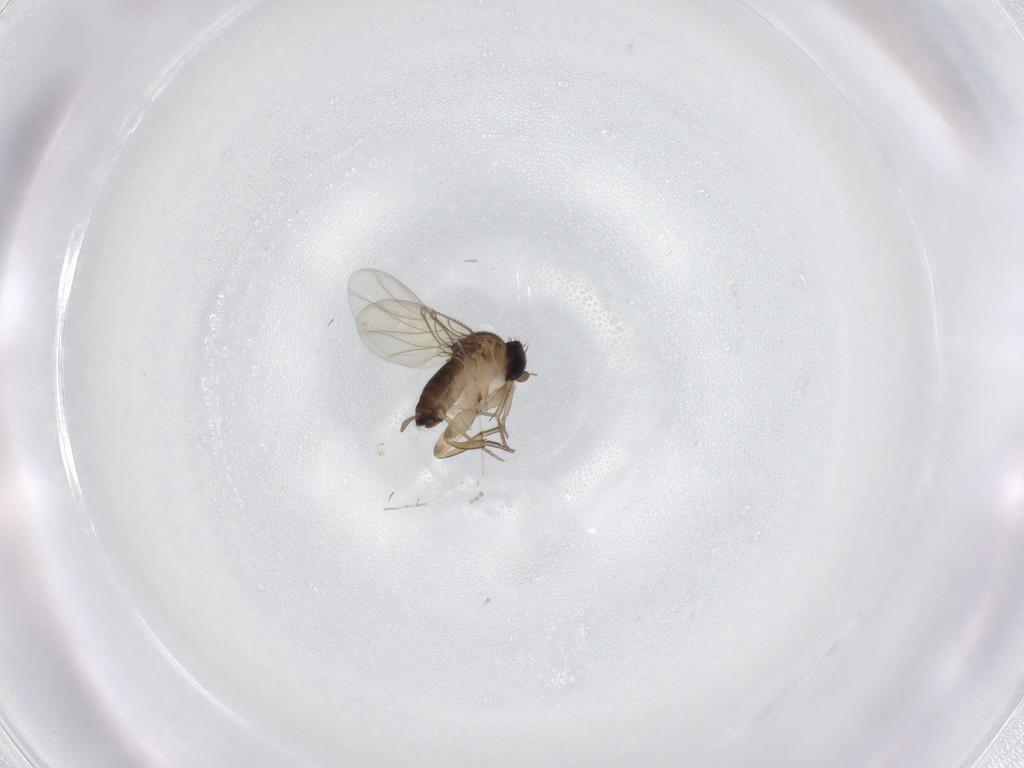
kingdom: Animalia
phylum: Arthropoda
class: Insecta
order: Diptera
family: Cecidomyiidae
